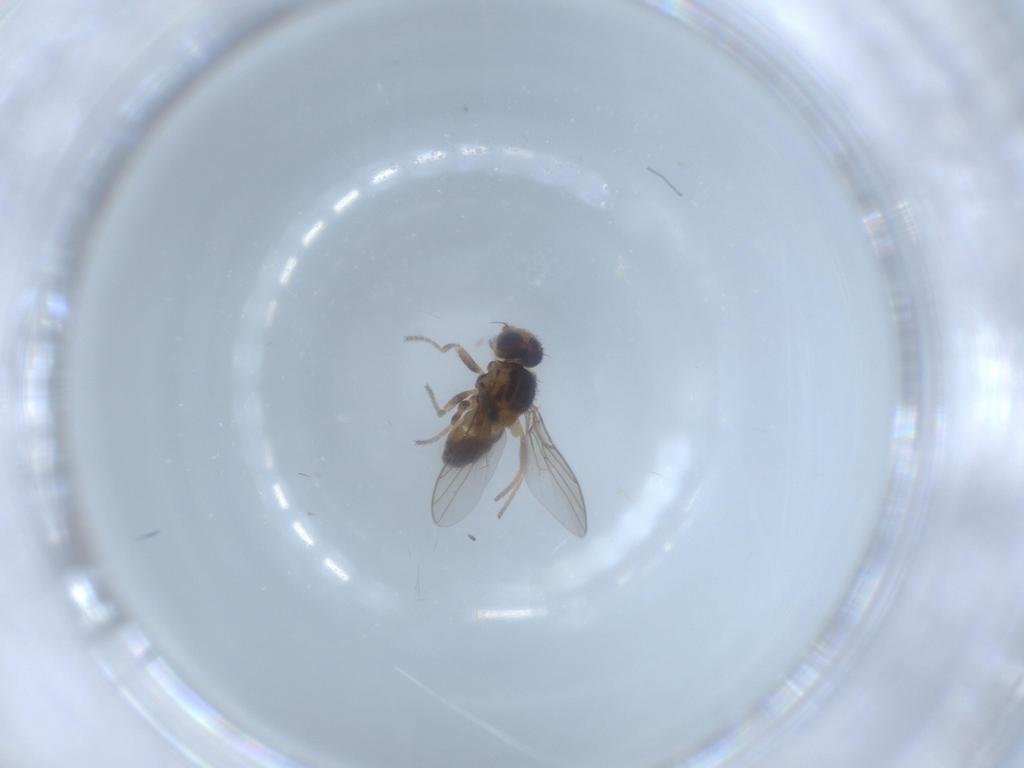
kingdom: Animalia
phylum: Arthropoda
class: Insecta
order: Diptera
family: Chloropidae
